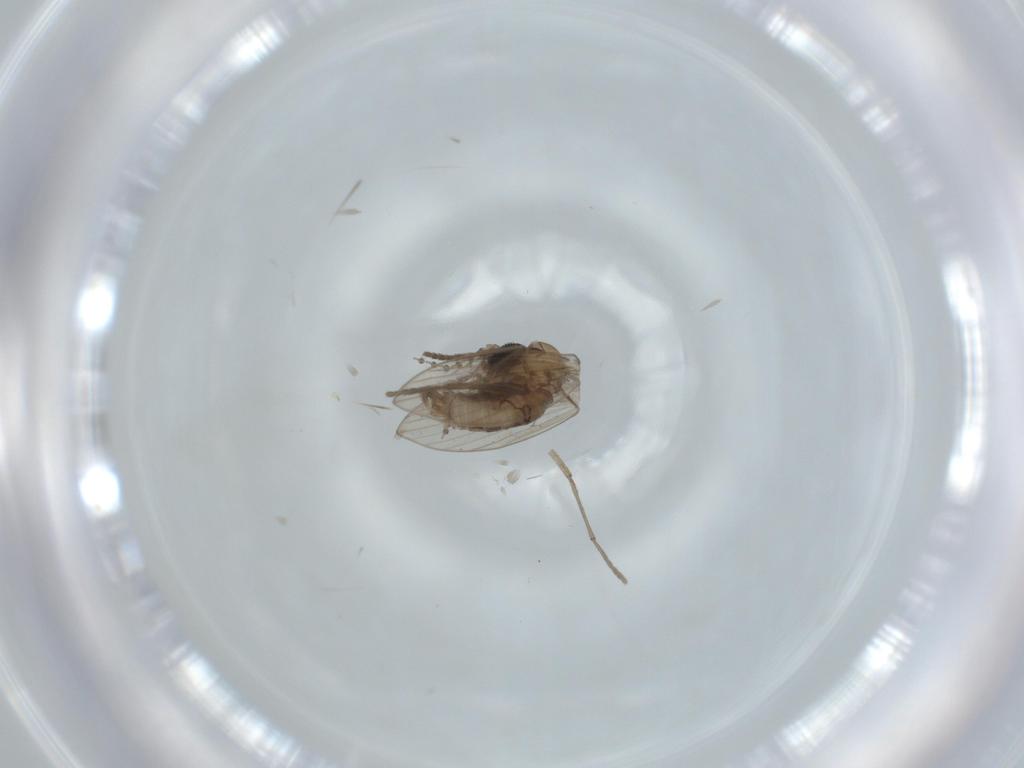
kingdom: Animalia
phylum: Arthropoda
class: Insecta
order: Diptera
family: Psychodidae
